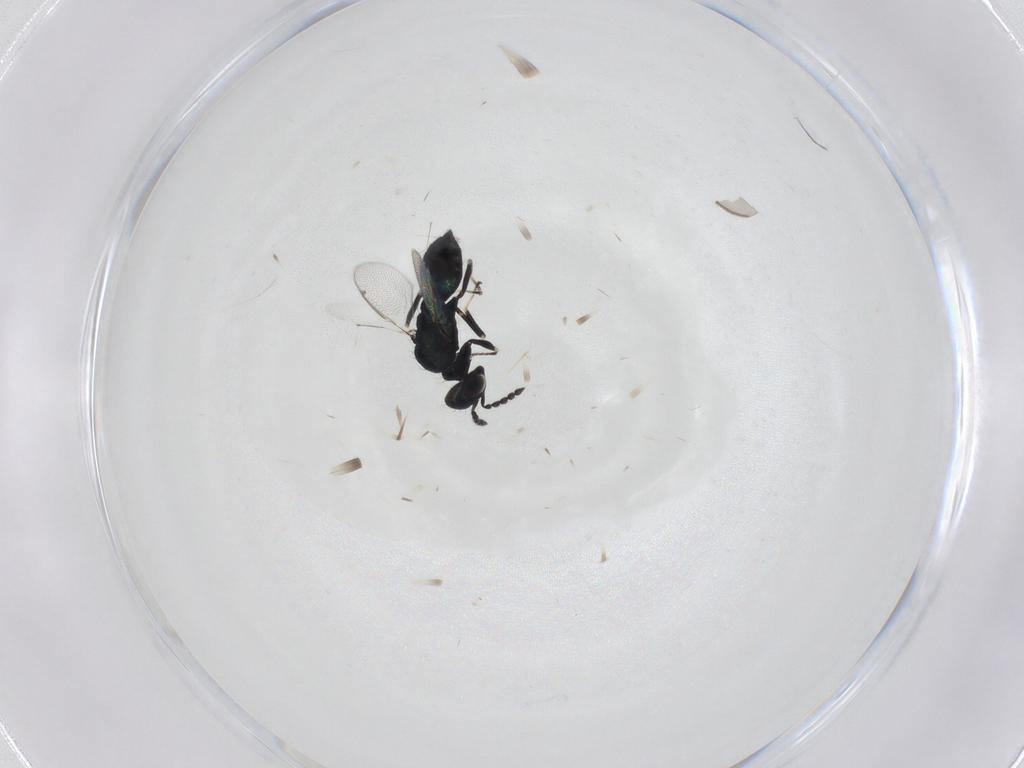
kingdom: Animalia
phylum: Arthropoda
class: Insecta
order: Hymenoptera
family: Eulophidae
